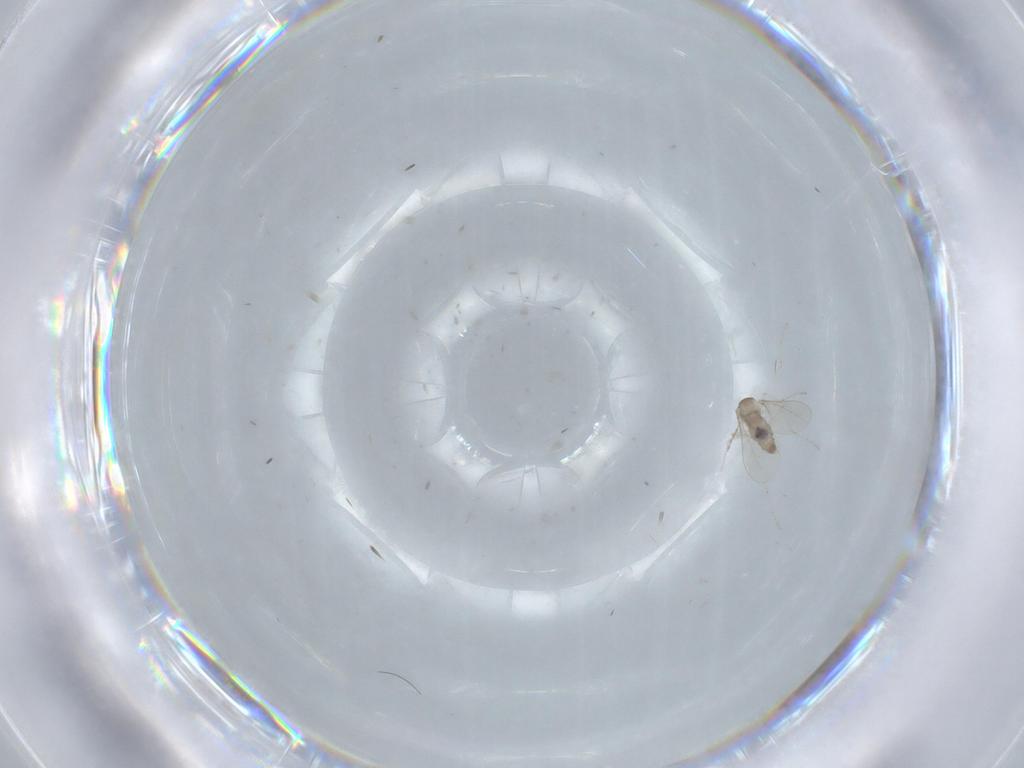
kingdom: Animalia
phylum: Arthropoda
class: Insecta
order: Diptera
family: Cecidomyiidae
